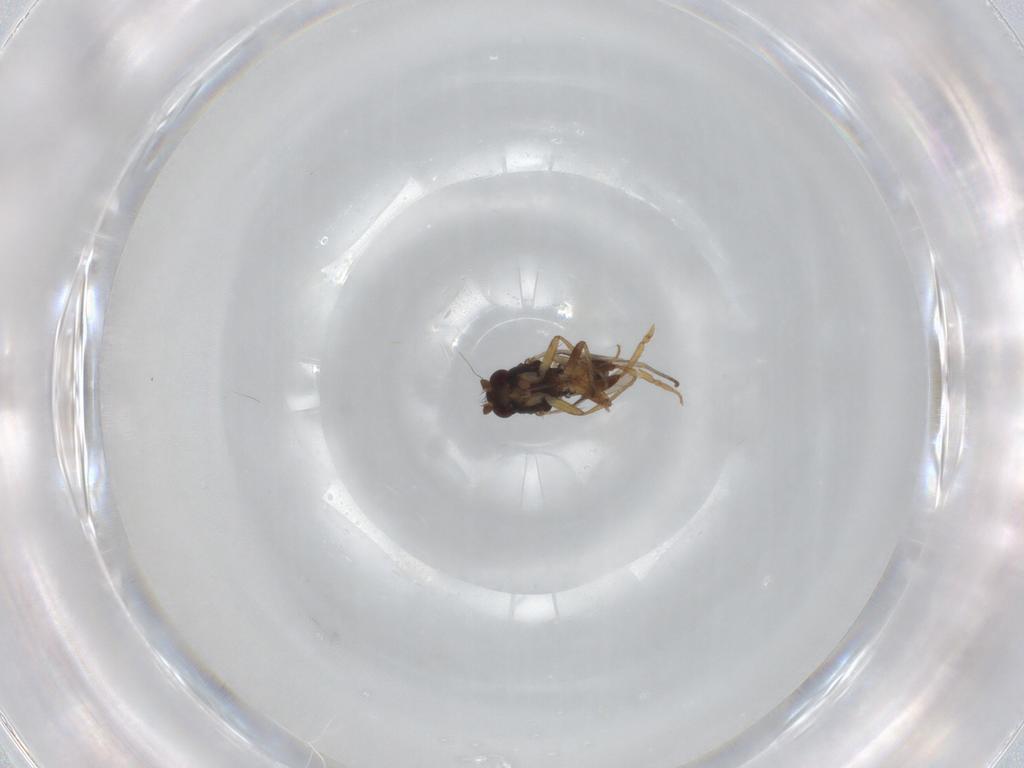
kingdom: Animalia
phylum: Arthropoda
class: Insecta
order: Diptera
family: Sphaeroceridae
